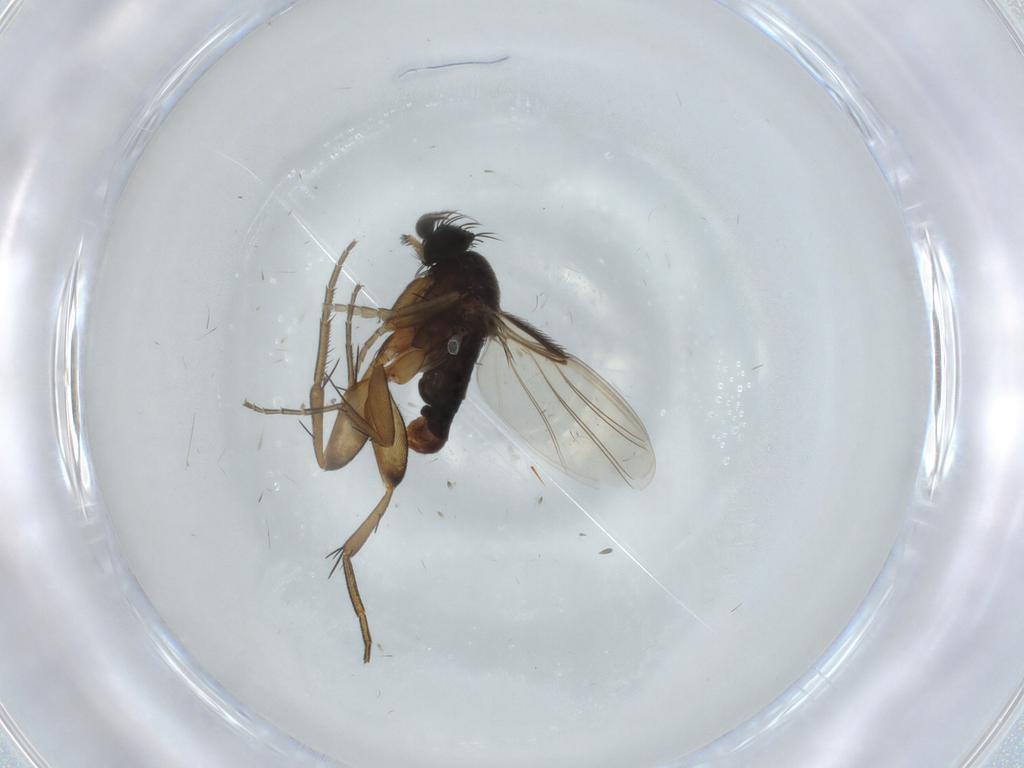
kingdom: Animalia
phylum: Arthropoda
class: Insecta
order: Diptera
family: Phoridae
